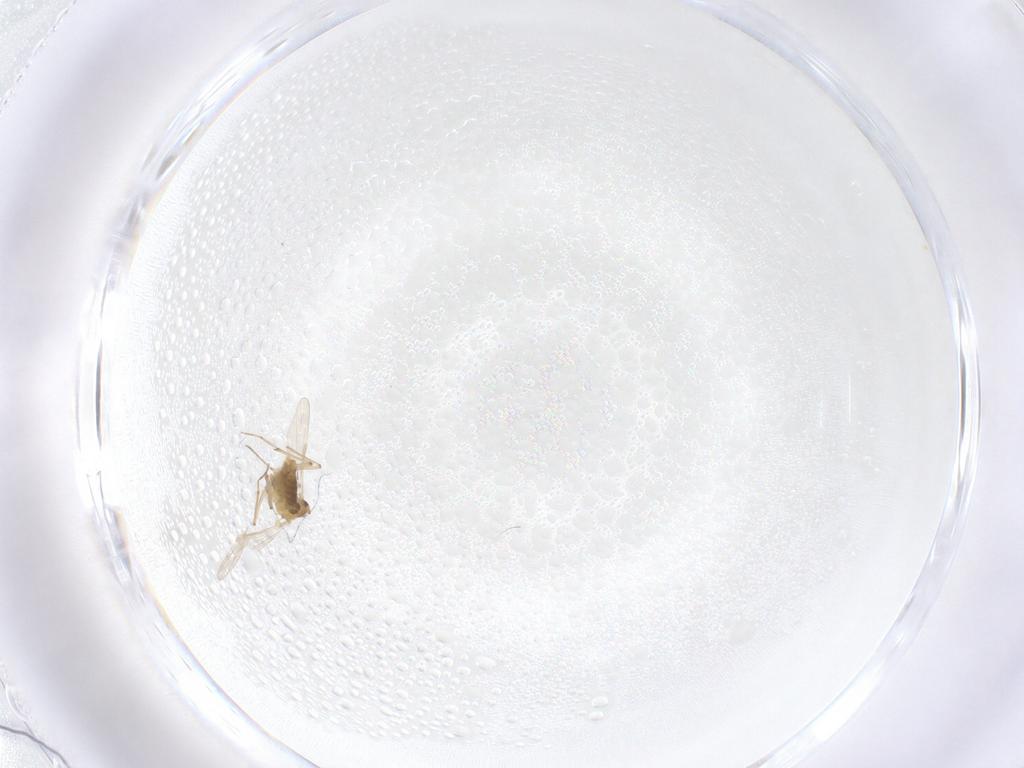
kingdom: Animalia
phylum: Arthropoda
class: Insecta
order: Diptera
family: Chironomidae
